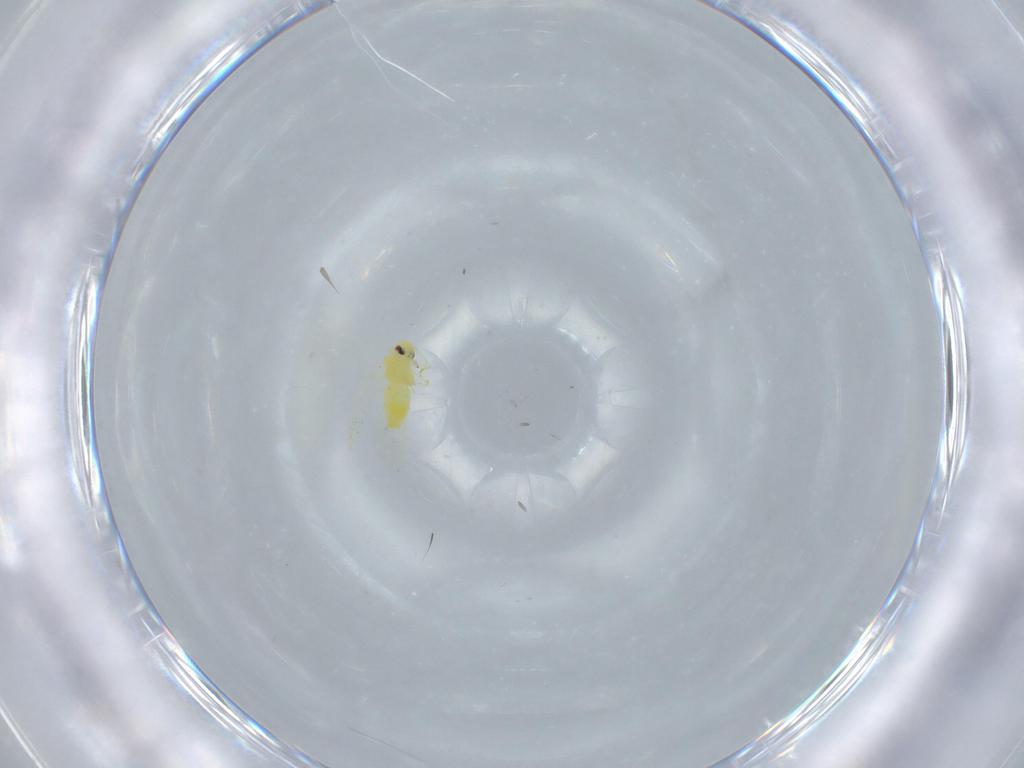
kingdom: Animalia
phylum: Arthropoda
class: Insecta
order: Hemiptera
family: Aleyrodidae
